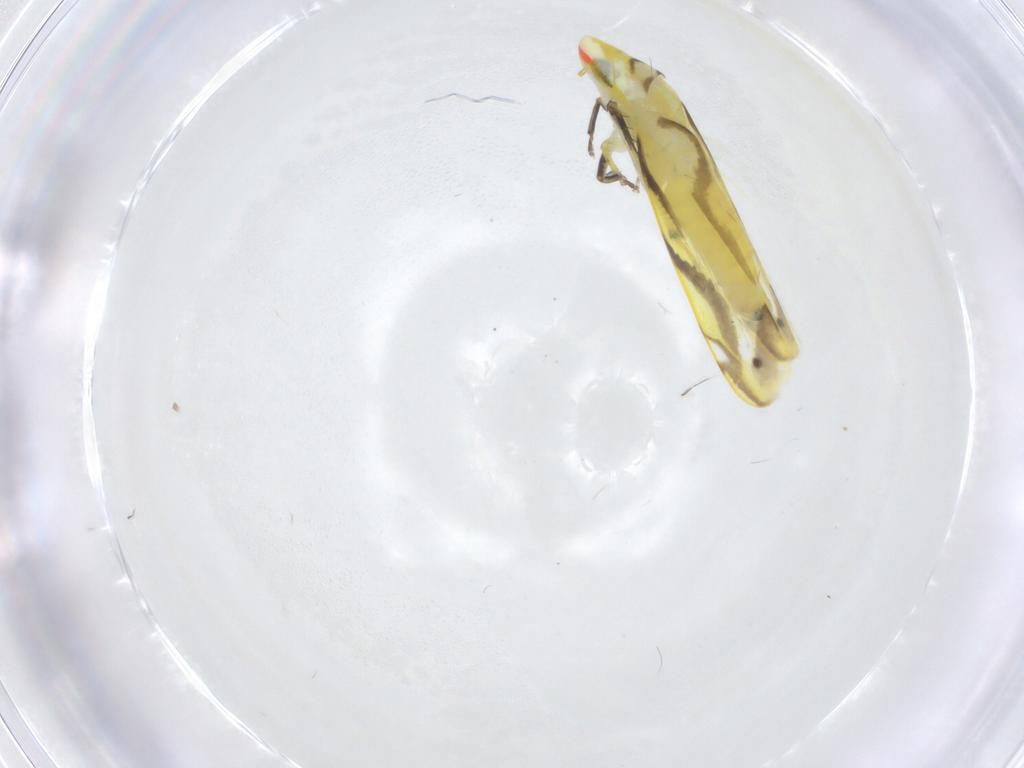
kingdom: Animalia
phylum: Arthropoda
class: Insecta
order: Hemiptera
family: Cicadellidae
